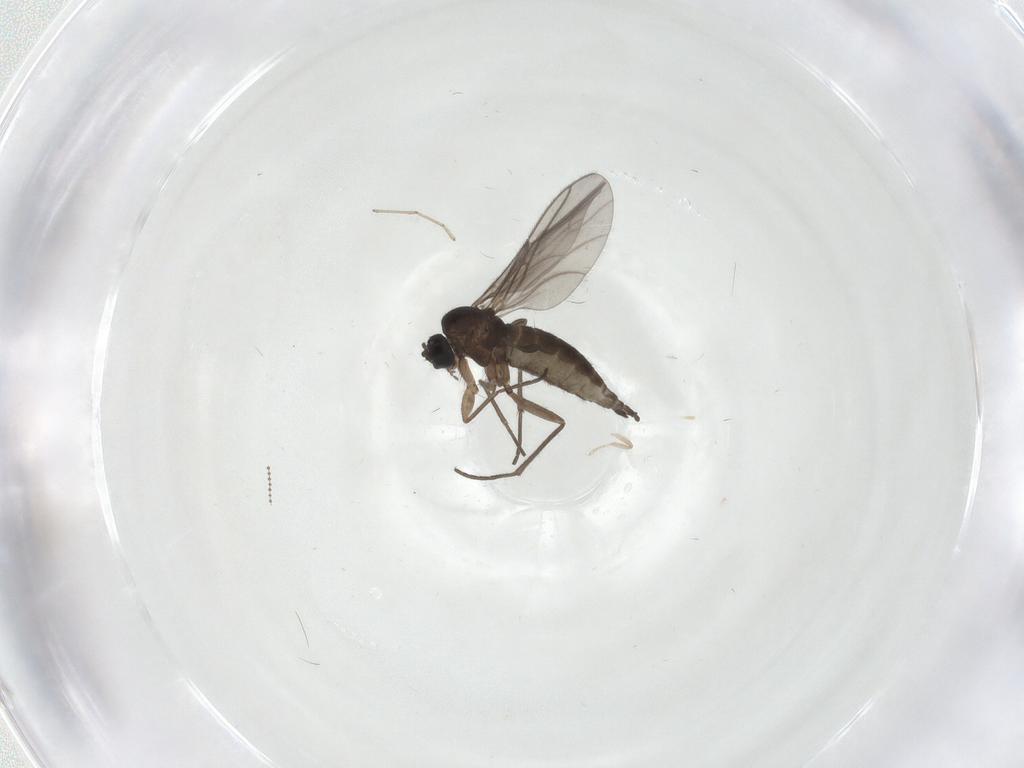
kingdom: Animalia
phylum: Arthropoda
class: Insecta
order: Diptera
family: Sciaridae
